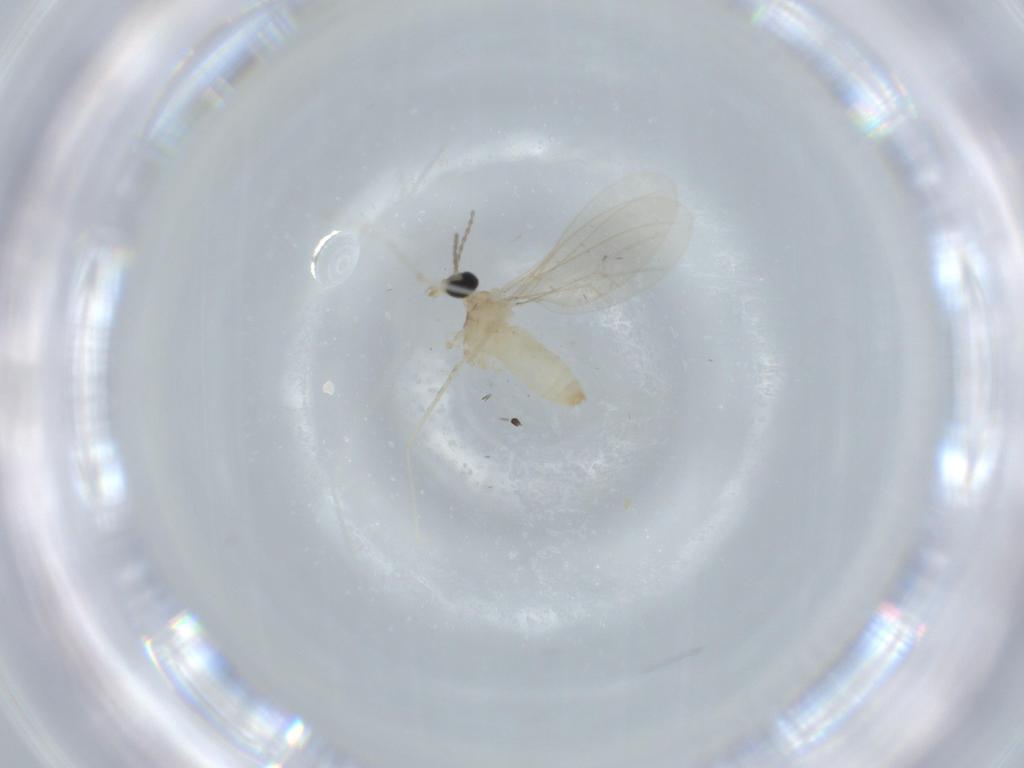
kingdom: Animalia
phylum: Arthropoda
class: Insecta
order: Diptera
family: Cecidomyiidae
